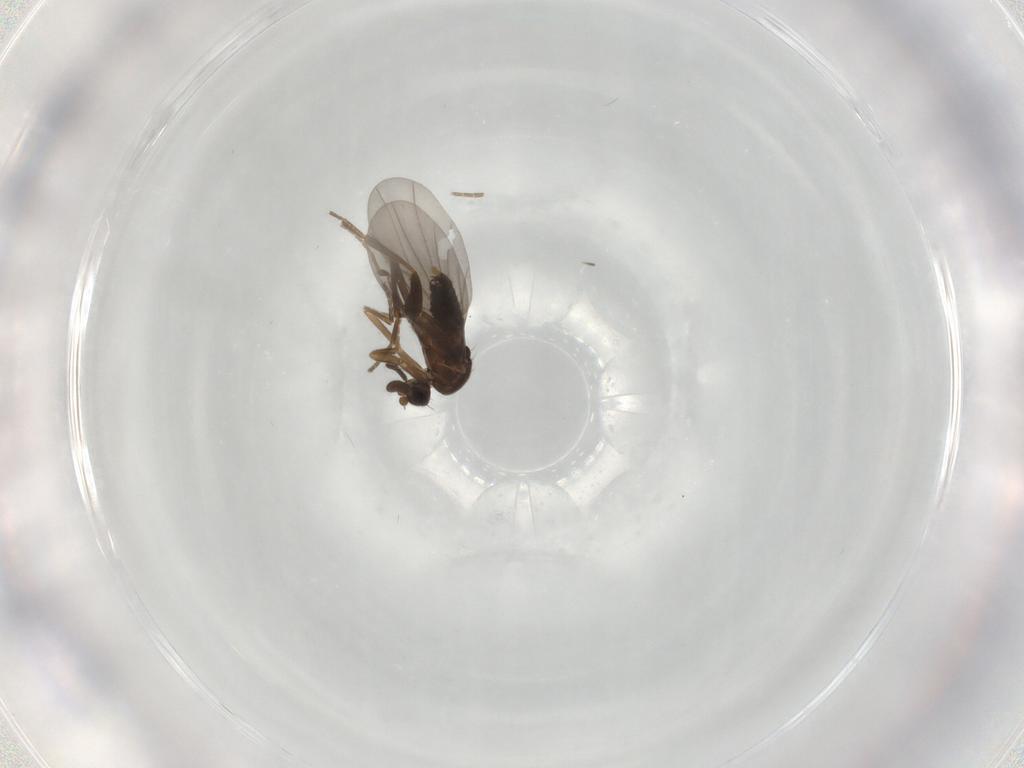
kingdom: Animalia
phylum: Arthropoda
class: Insecta
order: Diptera
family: Phoridae
